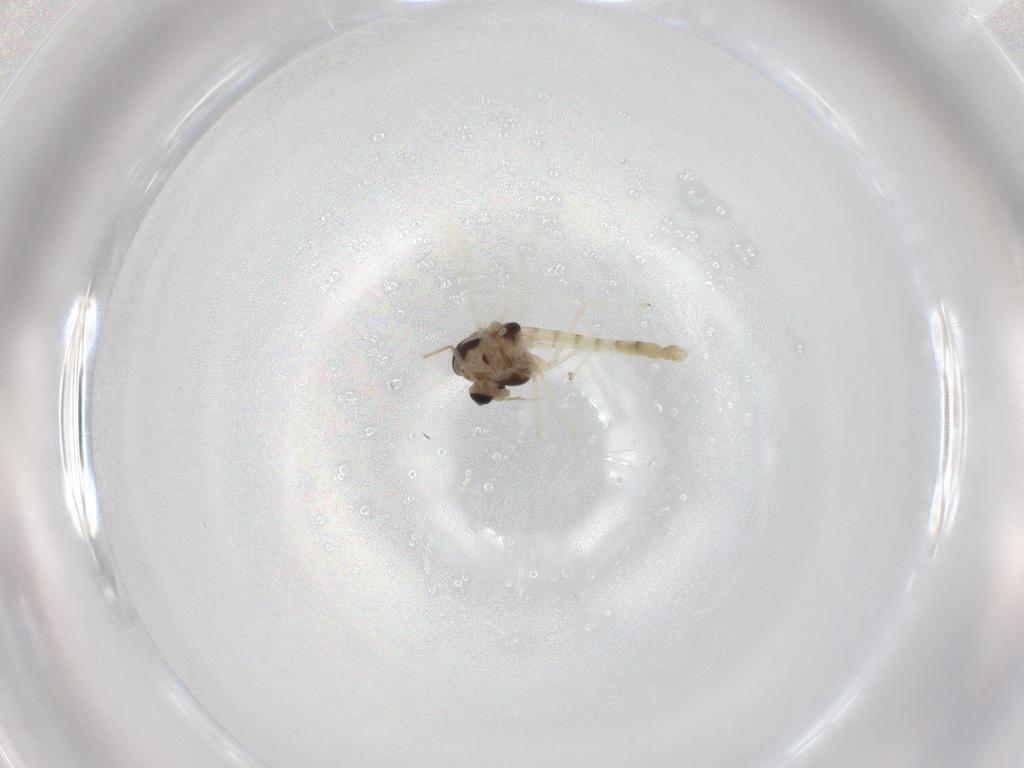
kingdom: Animalia
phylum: Arthropoda
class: Insecta
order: Diptera
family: Chironomidae
